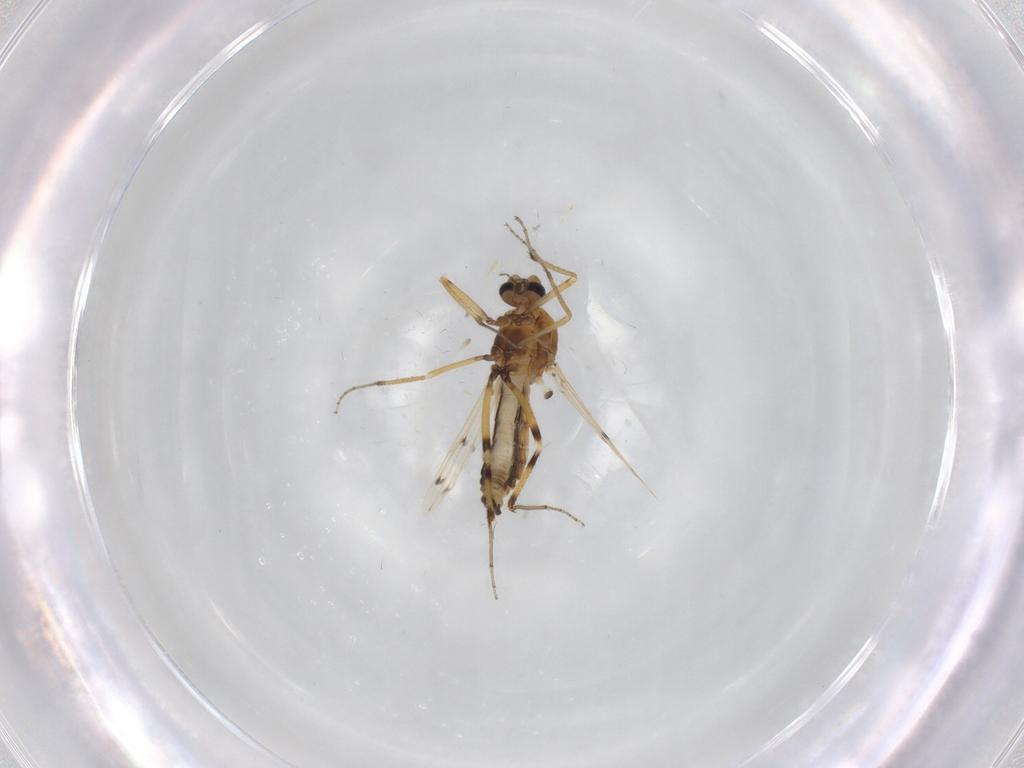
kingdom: Animalia
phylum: Arthropoda
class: Insecta
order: Diptera
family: Ceratopogonidae
